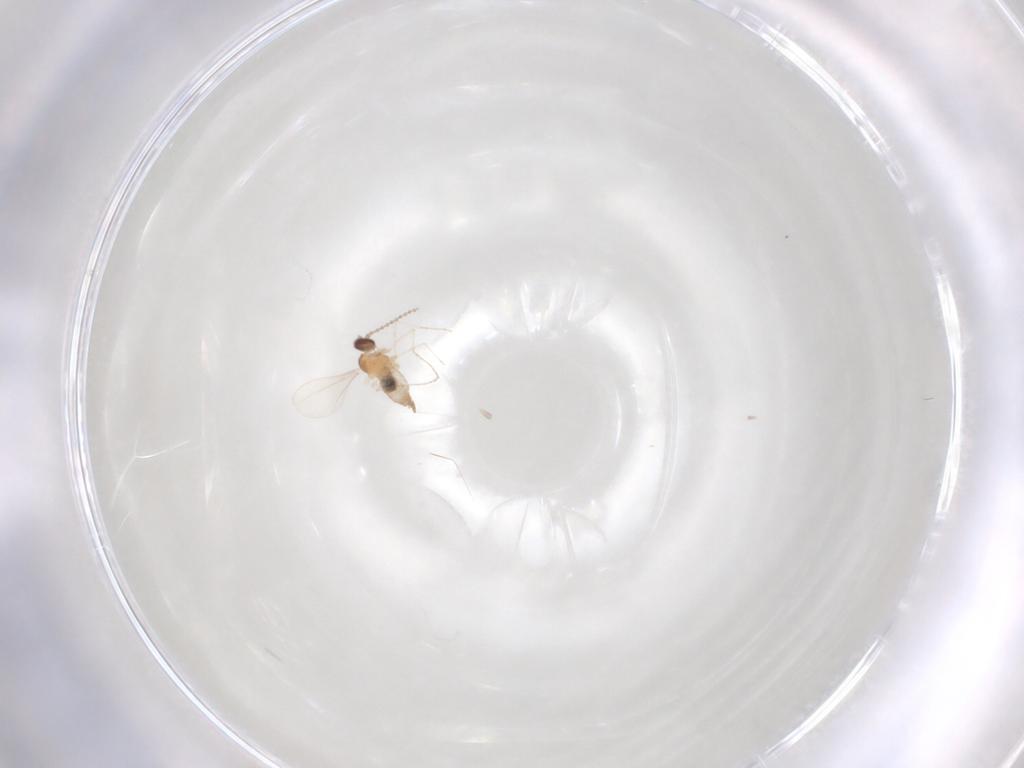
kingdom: Animalia
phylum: Arthropoda
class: Insecta
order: Diptera
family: Cecidomyiidae
